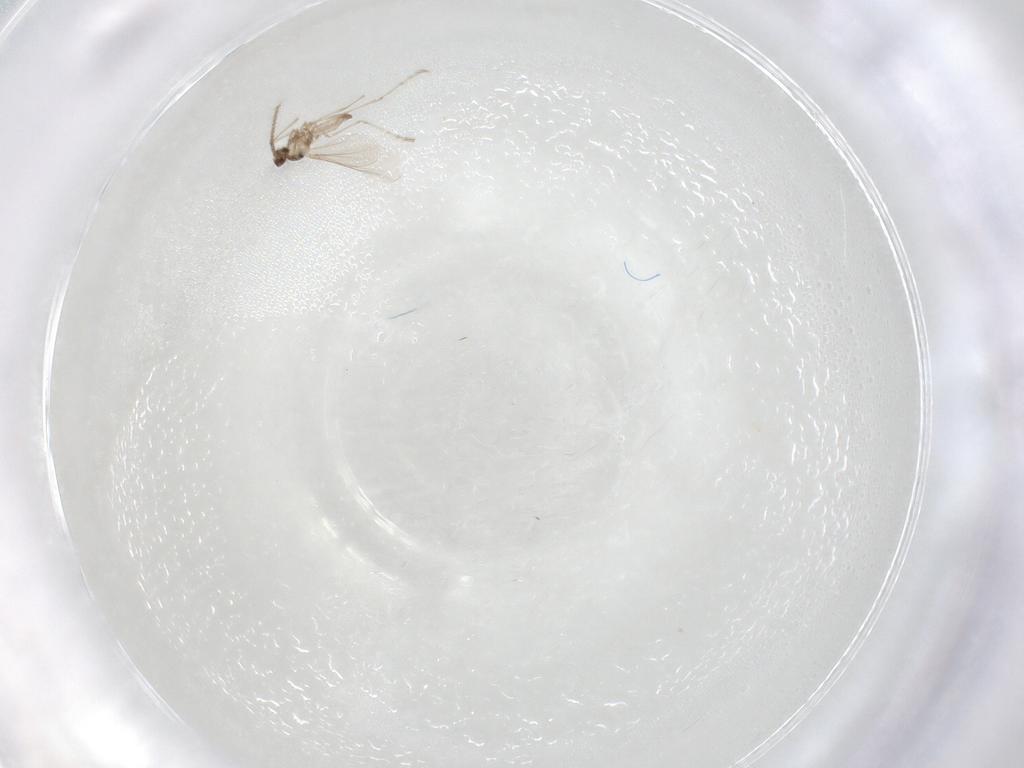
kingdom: Animalia
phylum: Arthropoda
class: Insecta
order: Diptera
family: Cecidomyiidae
